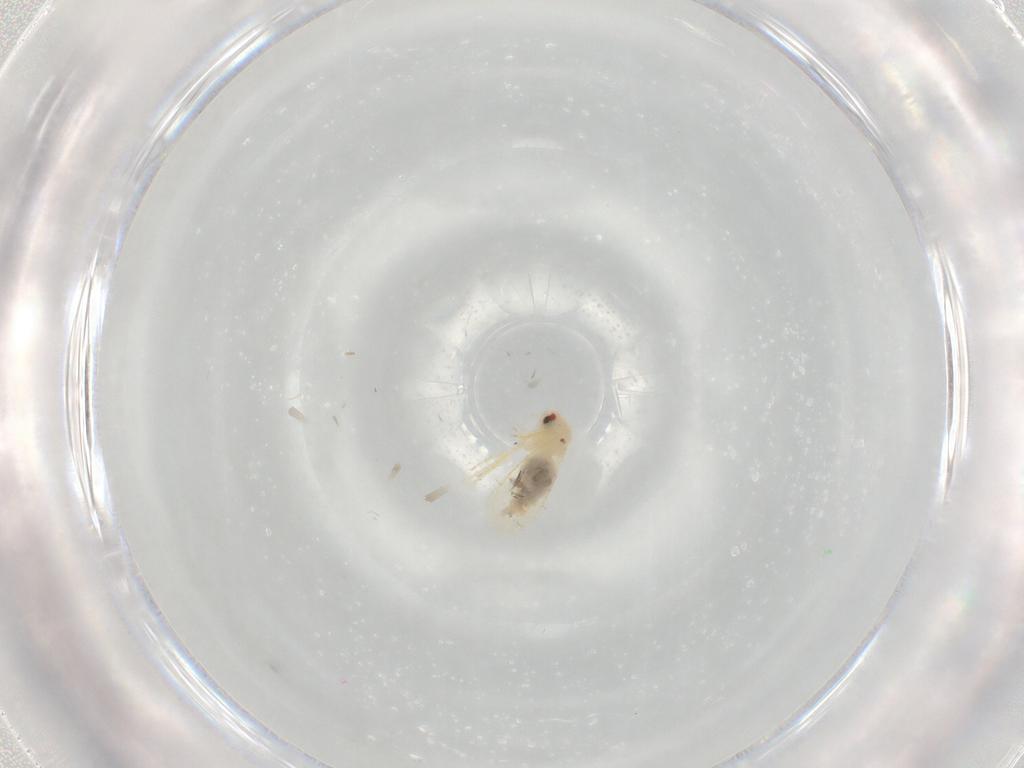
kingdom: Animalia
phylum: Arthropoda
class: Insecta
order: Hemiptera
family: Aleyrodidae
